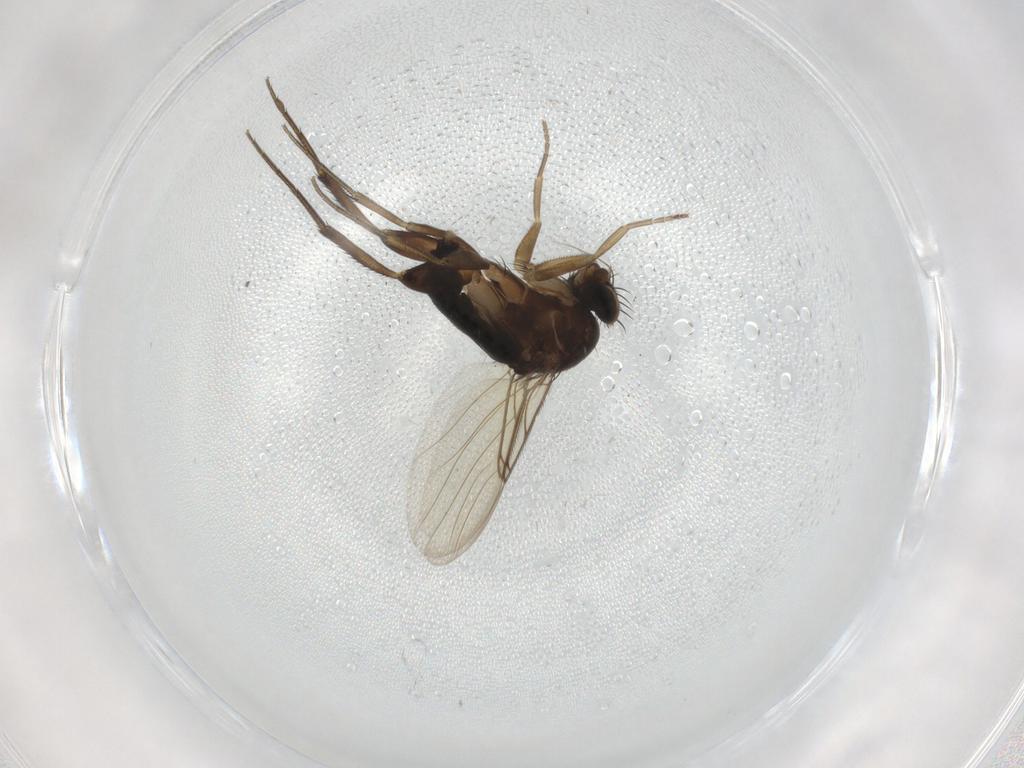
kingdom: Animalia
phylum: Arthropoda
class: Insecta
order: Diptera
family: Phoridae
